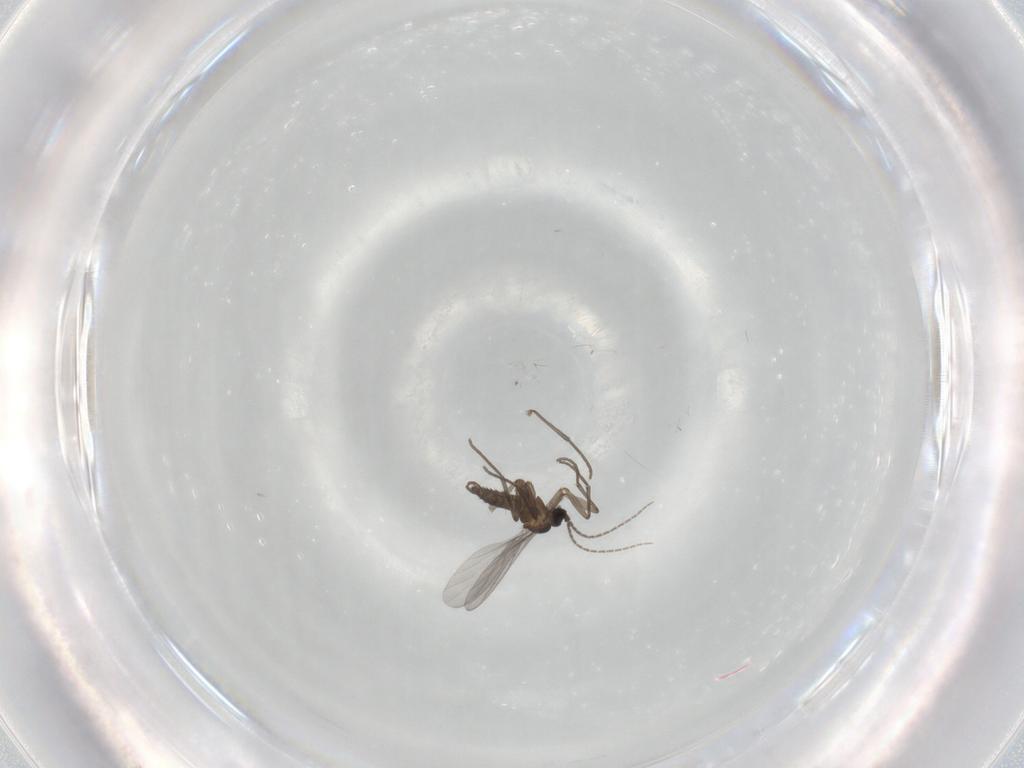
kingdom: Animalia
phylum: Arthropoda
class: Insecta
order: Diptera
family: Sciaridae
